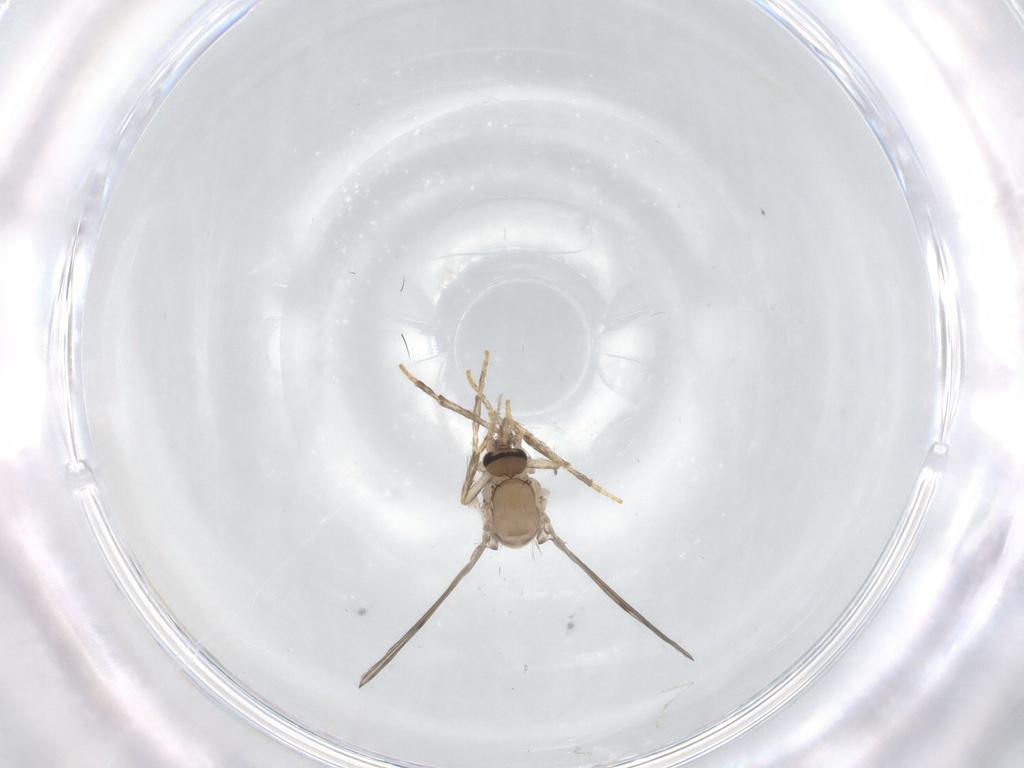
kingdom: Animalia
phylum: Arthropoda
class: Insecta
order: Diptera
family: Psychodidae
